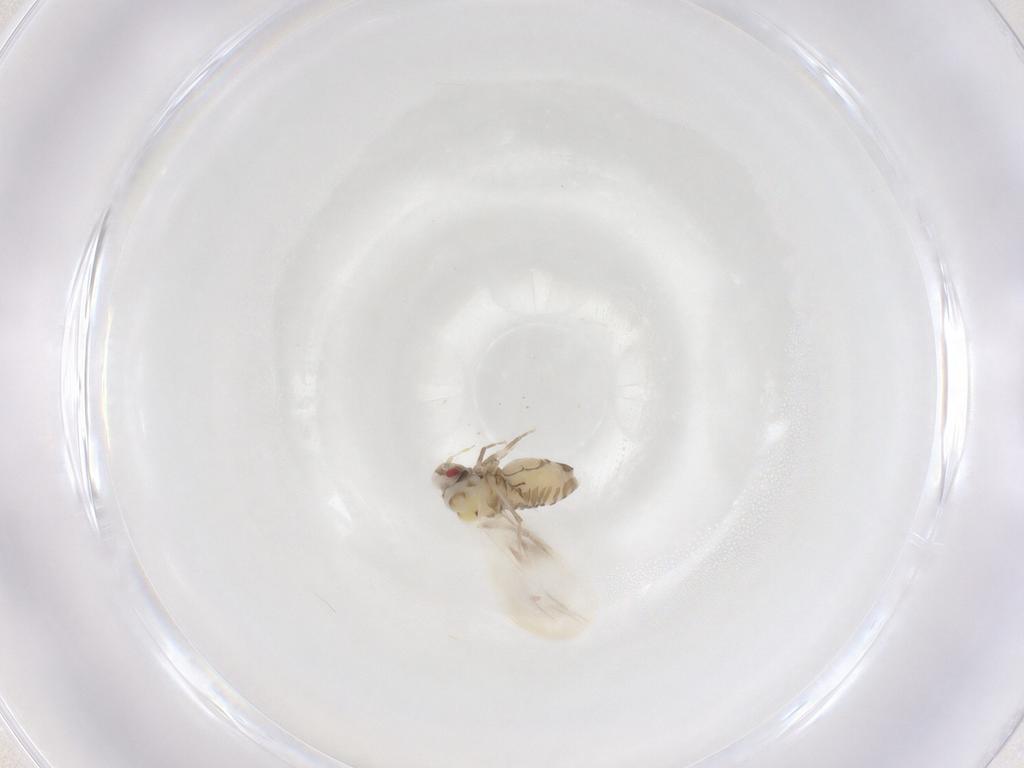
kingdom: Animalia
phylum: Arthropoda
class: Insecta
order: Hemiptera
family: Aleyrodidae
